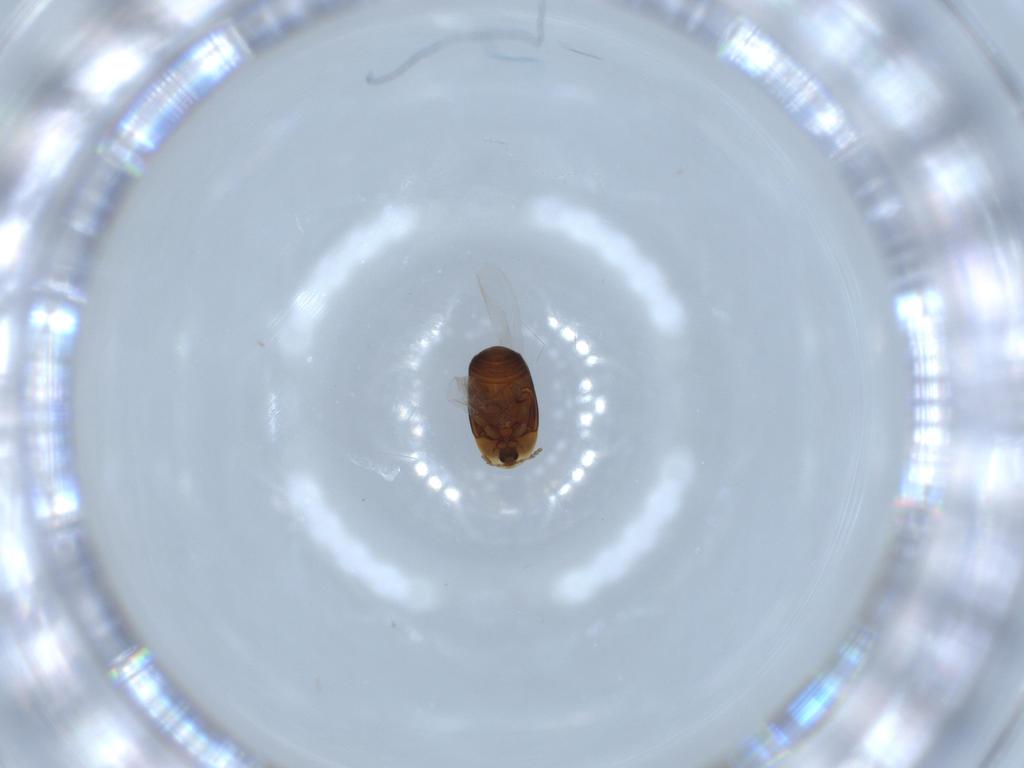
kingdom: Animalia
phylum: Arthropoda
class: Insecta
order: Coleoptera
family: Corylophidae
